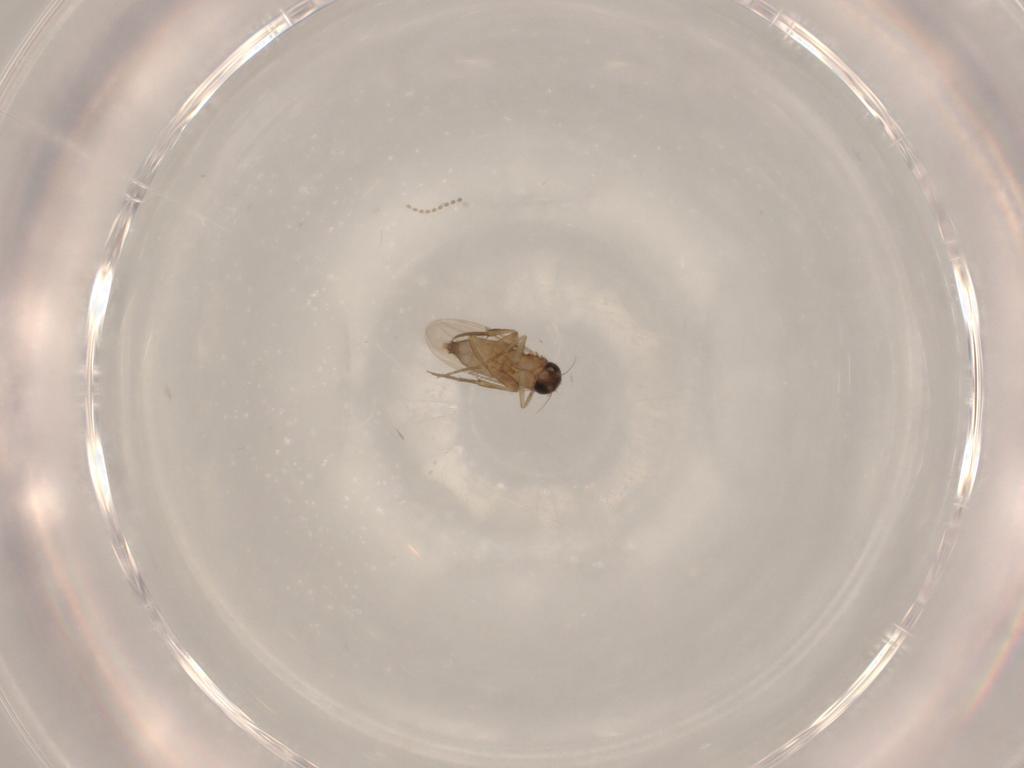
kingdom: Animalia
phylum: Arthropoda
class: Insecta
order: Diptera
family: Phoridae
